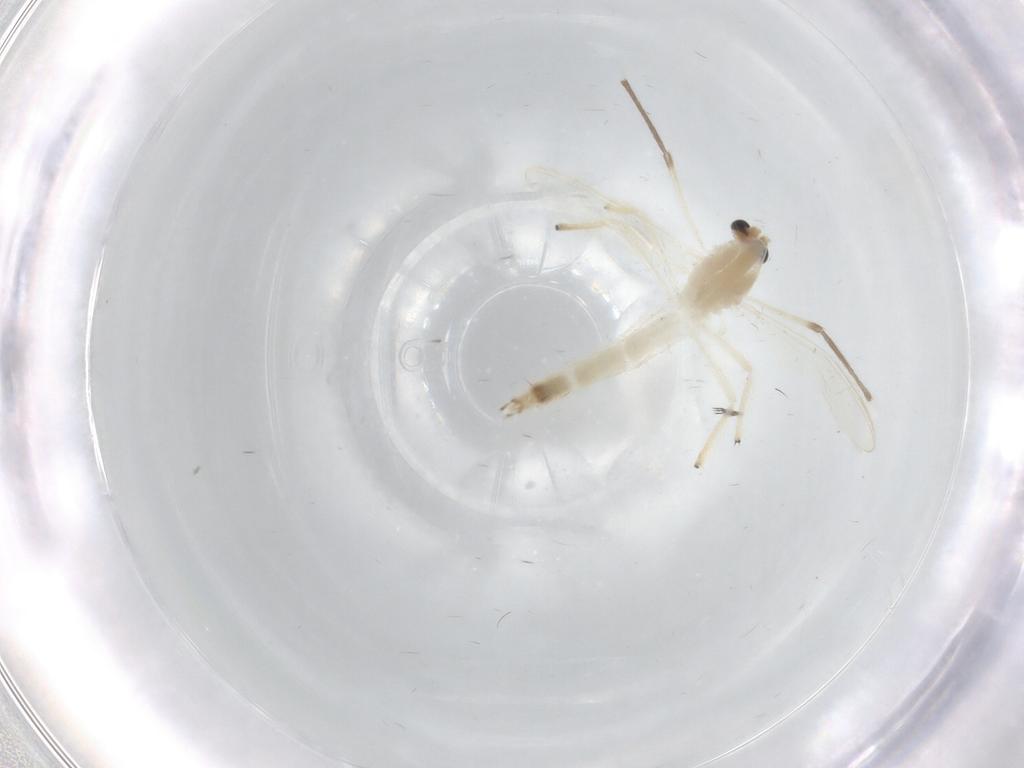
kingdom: Animalia
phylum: Arthropoda
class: Insecta
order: Diptera
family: Chironomidae
